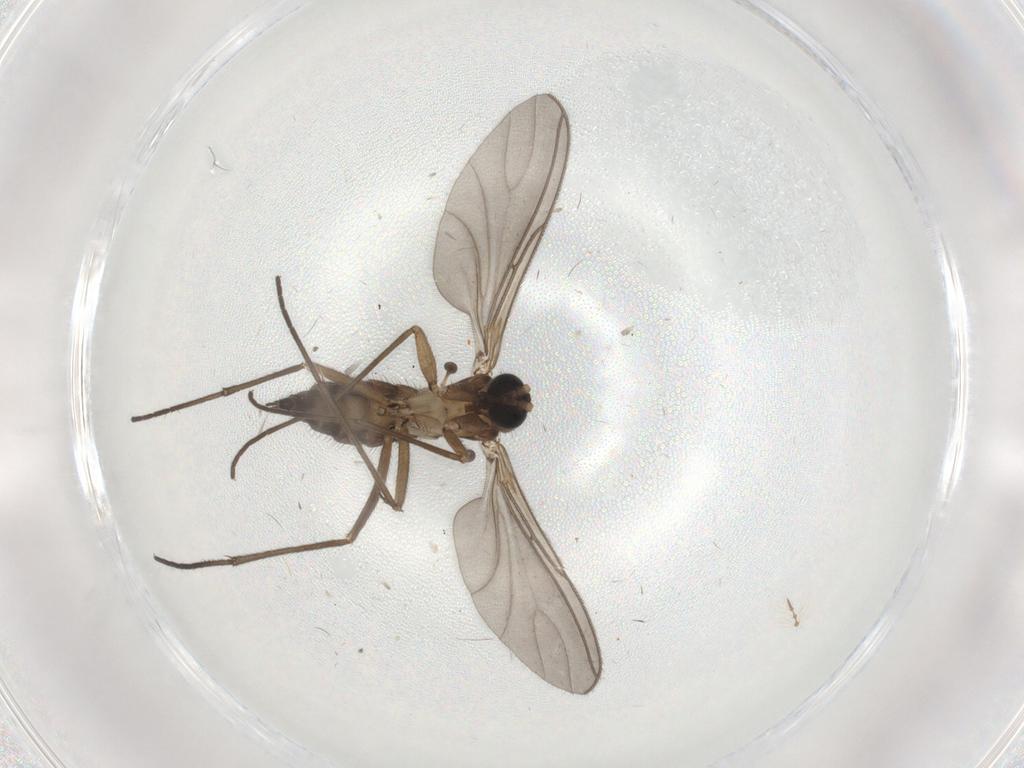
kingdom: Animalia
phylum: Arthropoda
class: Insecta
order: Diptera
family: Sciaridae
